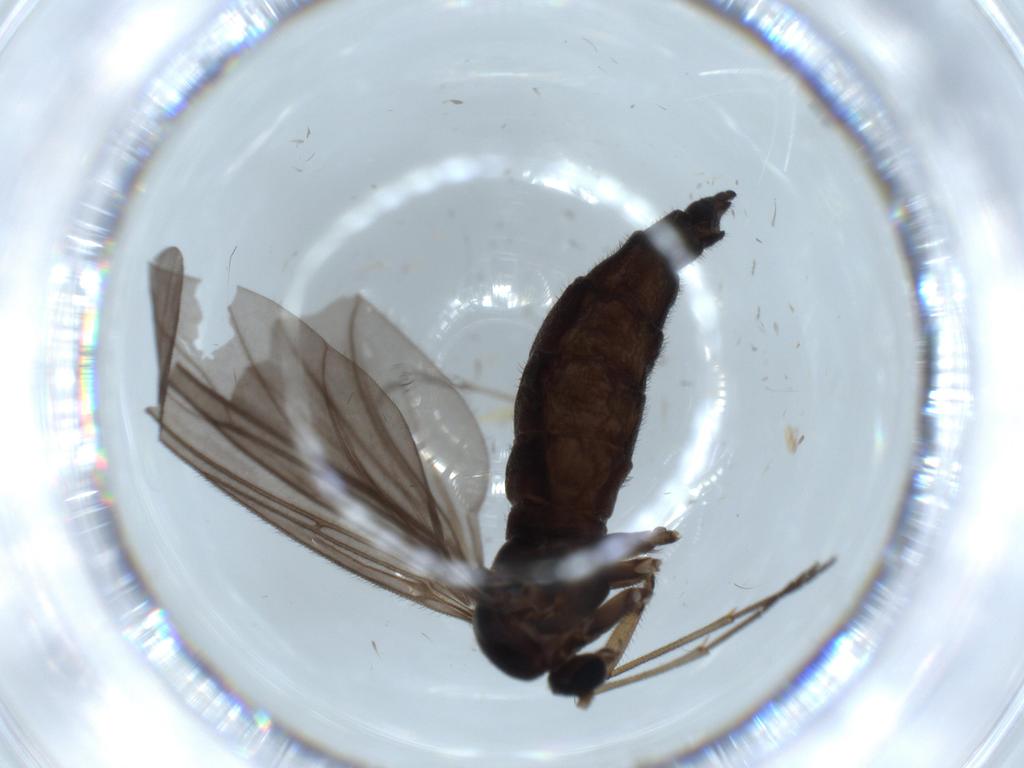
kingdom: Animalia
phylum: Arthropoda
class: Insecta
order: Diptera
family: Sciaridae
